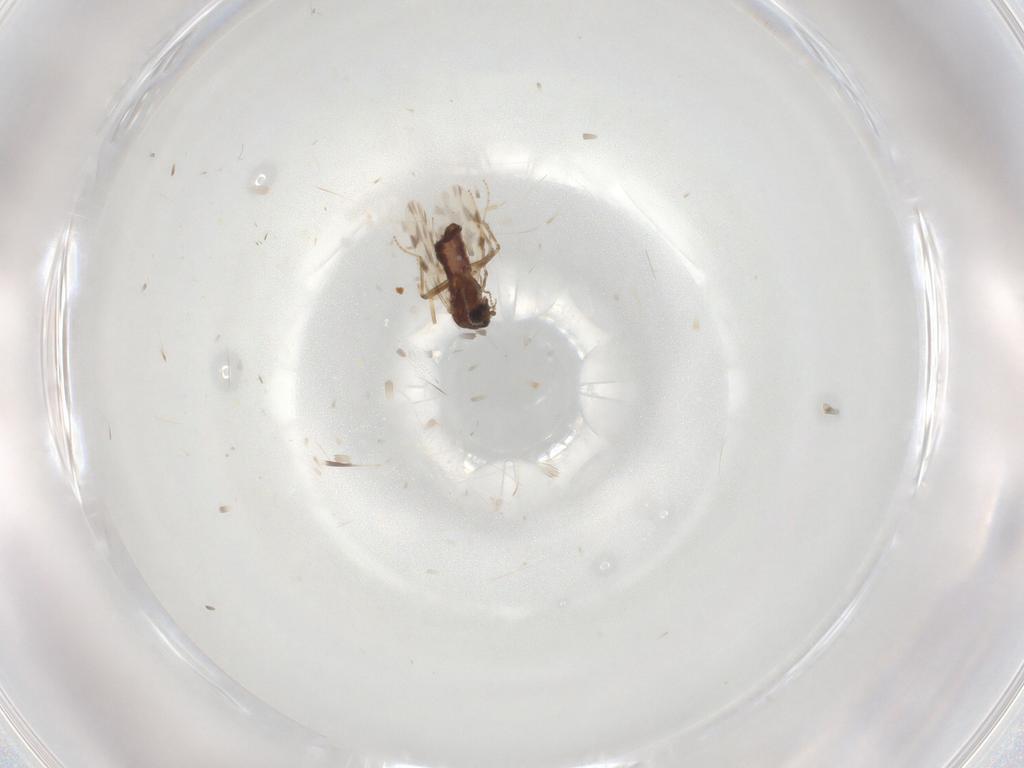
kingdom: Animalia
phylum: Arthropoda
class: Insecta
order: Diptera
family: Ceratopogonidae
